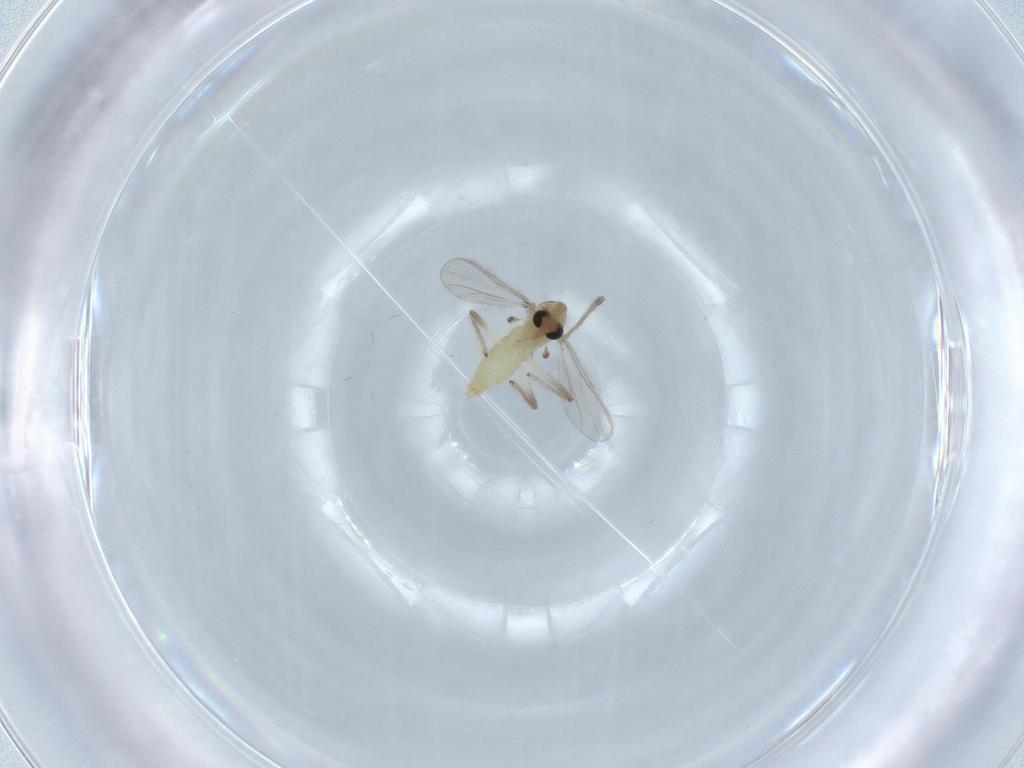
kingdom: Animalia
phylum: Arthropoda
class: Insecta
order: Diptera
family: Chironomidae
